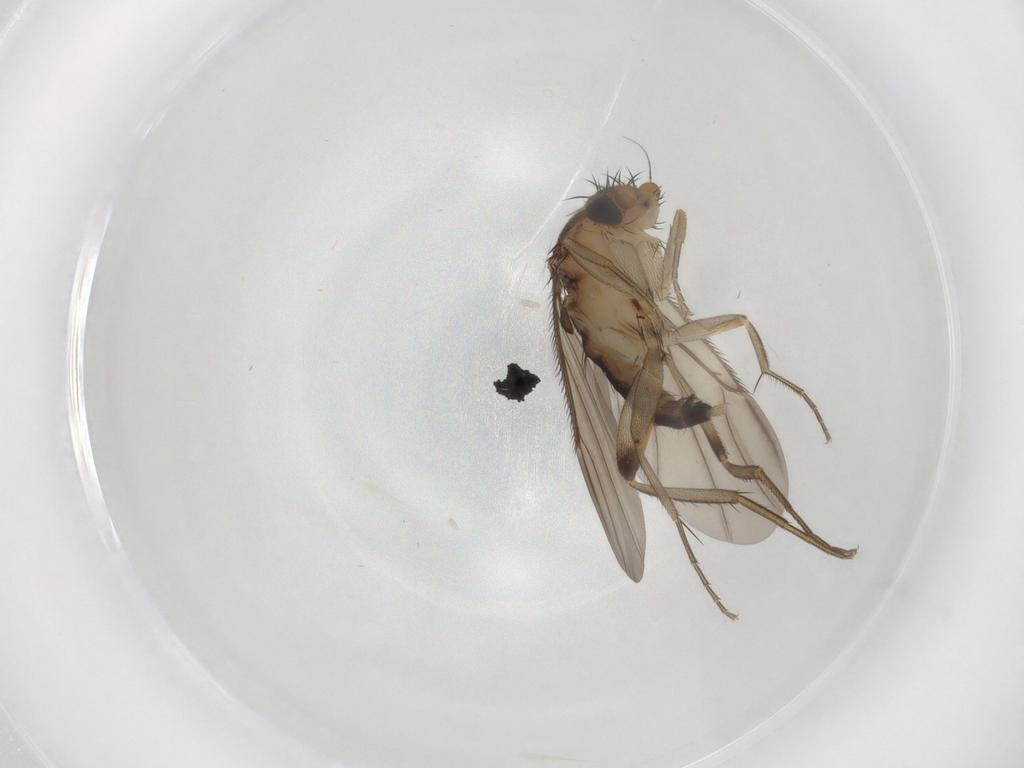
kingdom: Animalia
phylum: Arthropoda
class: Insecta
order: Diptera
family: Phoridae
